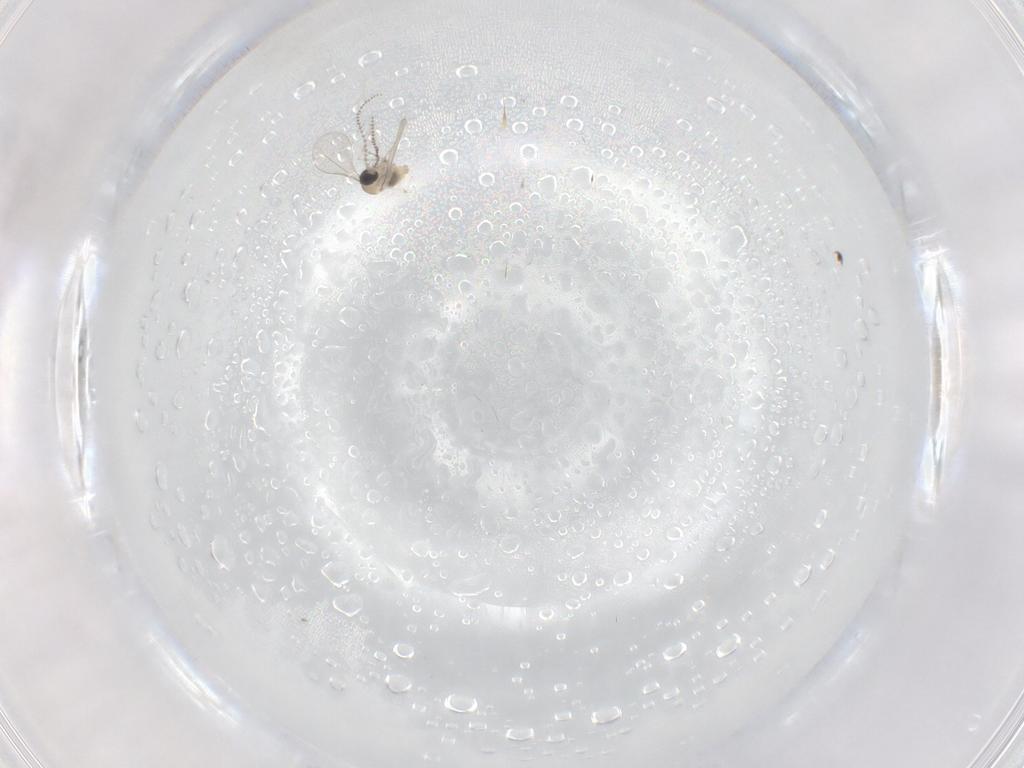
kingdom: Animalia
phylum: Arthropoda
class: Insecta
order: Diptera
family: Cecidomyiidae
